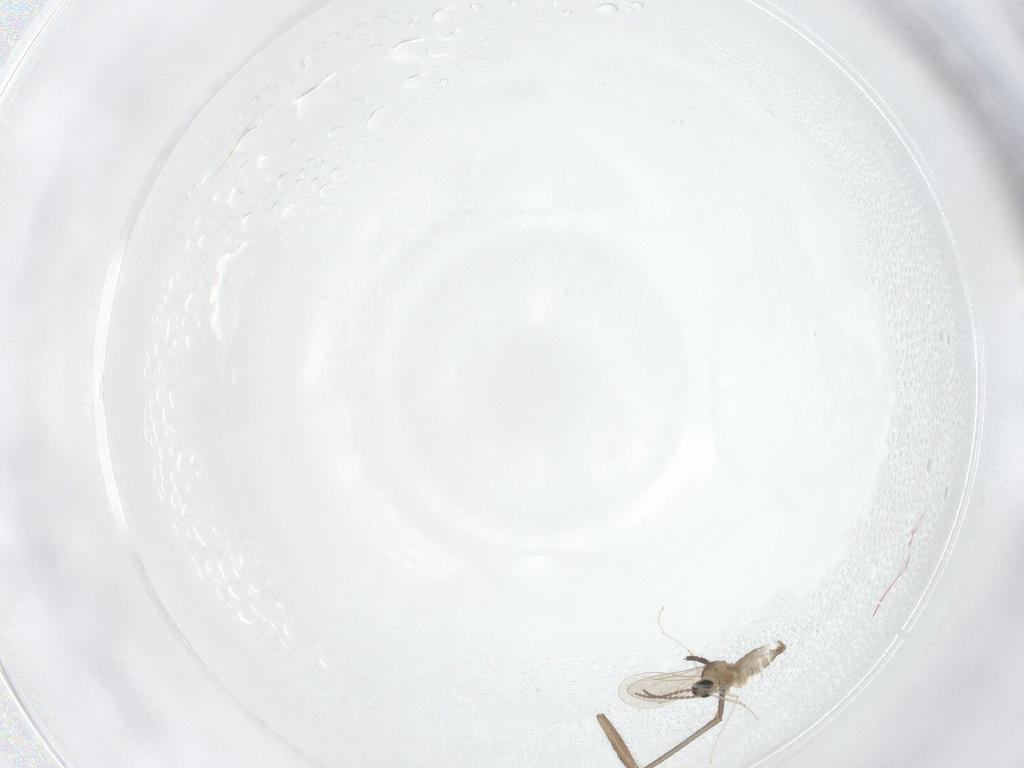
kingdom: Animalia
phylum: Arthropoda
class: Insecta
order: Diptera
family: Cecidomyiidae
